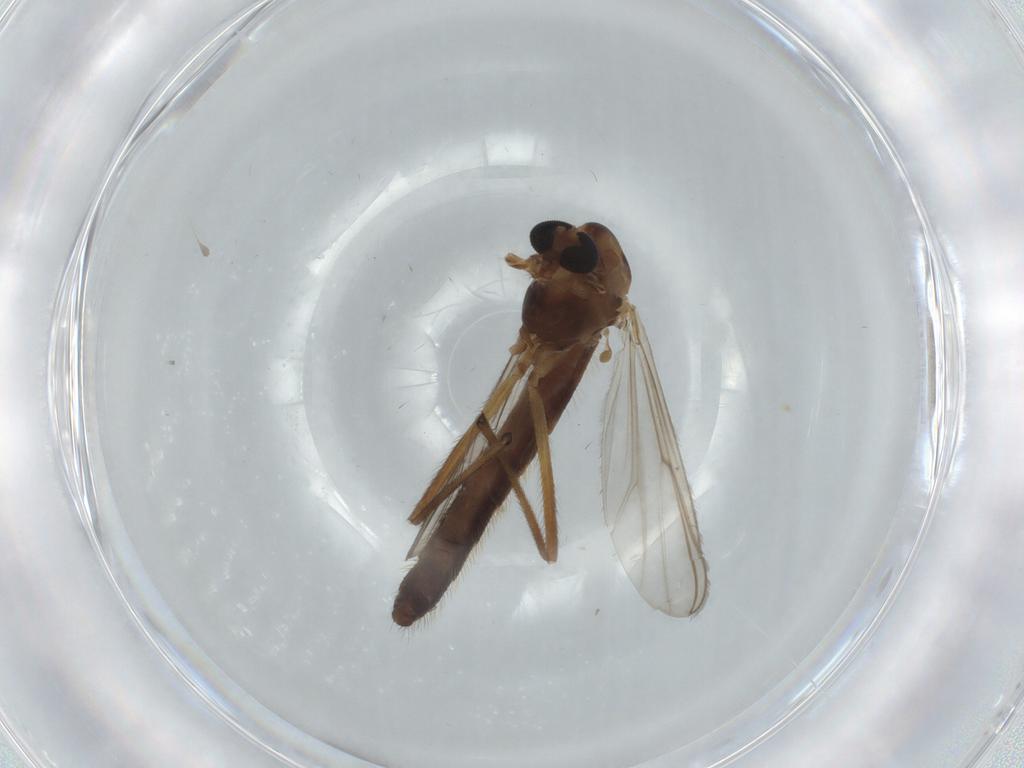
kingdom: Animalia
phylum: Arthropoda
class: Insecta
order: Diptera
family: Chironomidae
